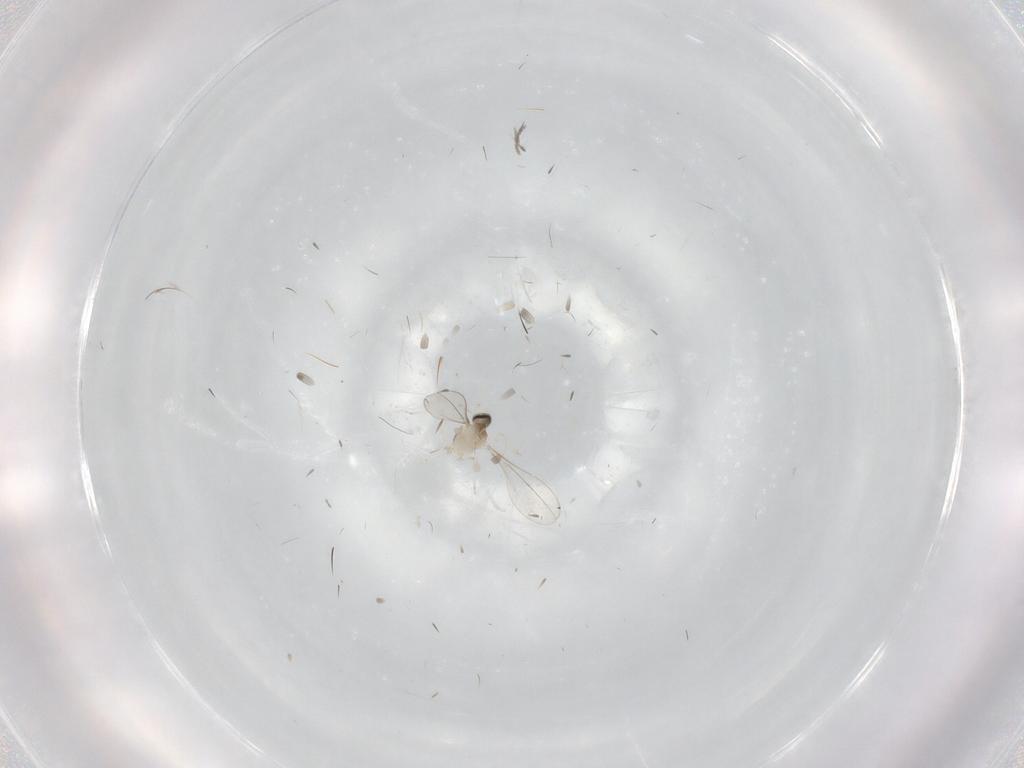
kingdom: Animalia
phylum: Arthropoda
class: Insecta
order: Diptera
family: Cecidomyiidae
